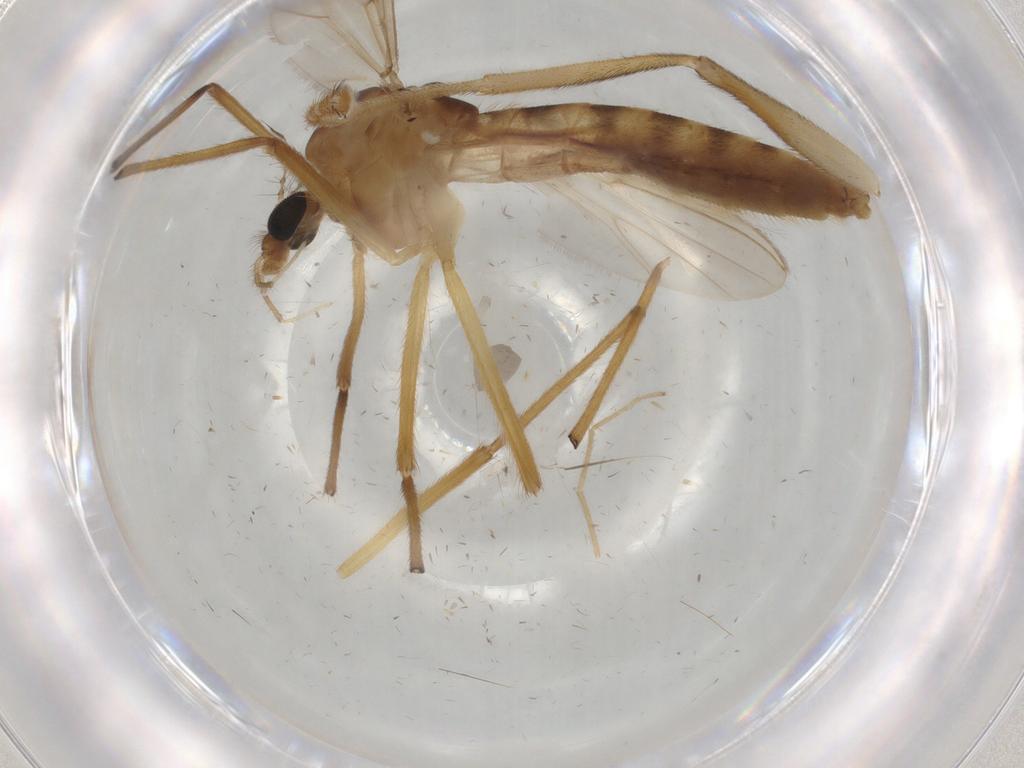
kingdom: Animalia
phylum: Arthropoda
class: Insecta
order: Diptera
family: Stratiomyidae
